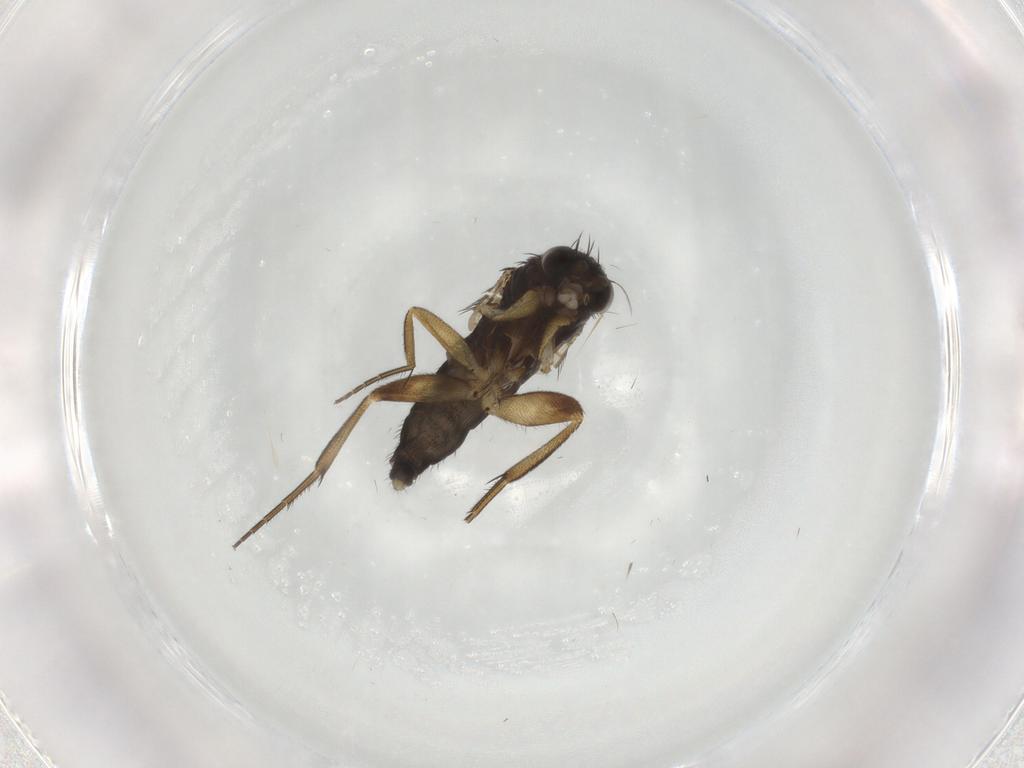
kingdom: Animalia
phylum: Arthropoda
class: Insecta
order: Diptera
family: Phoridae
